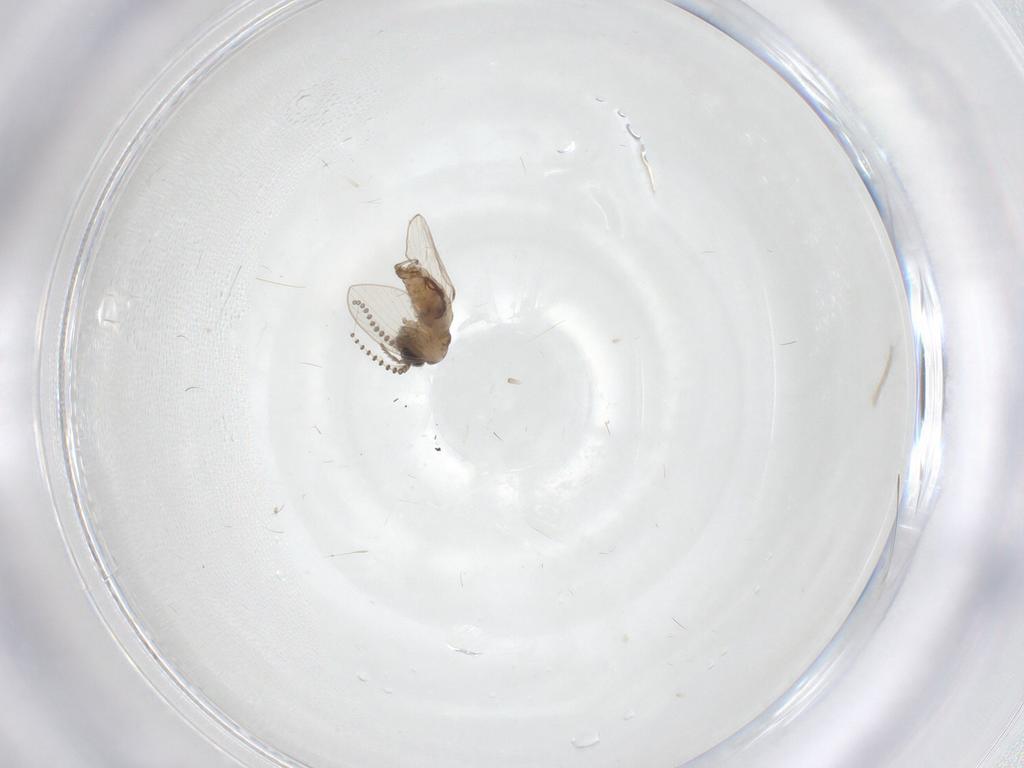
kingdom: Animalia
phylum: Arthropoda
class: Insecta
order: Diptera
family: Psychodidae
